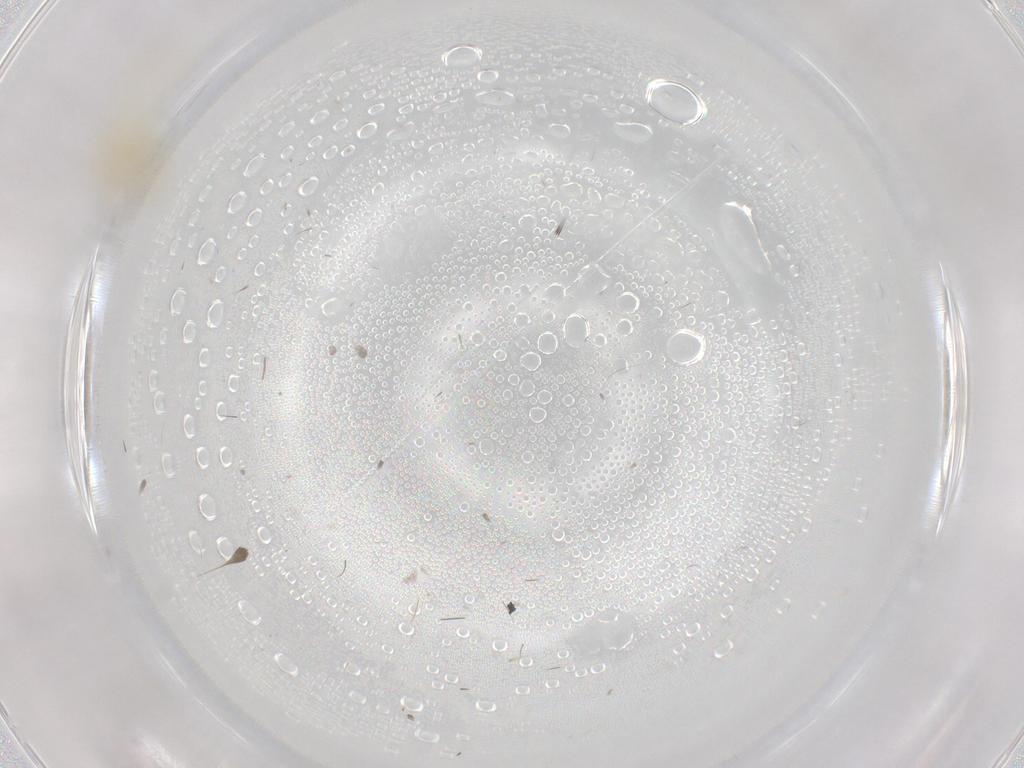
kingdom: Animalia
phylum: Arthropoda
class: Insecta
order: Hemiptera
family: Aleyrodidae
